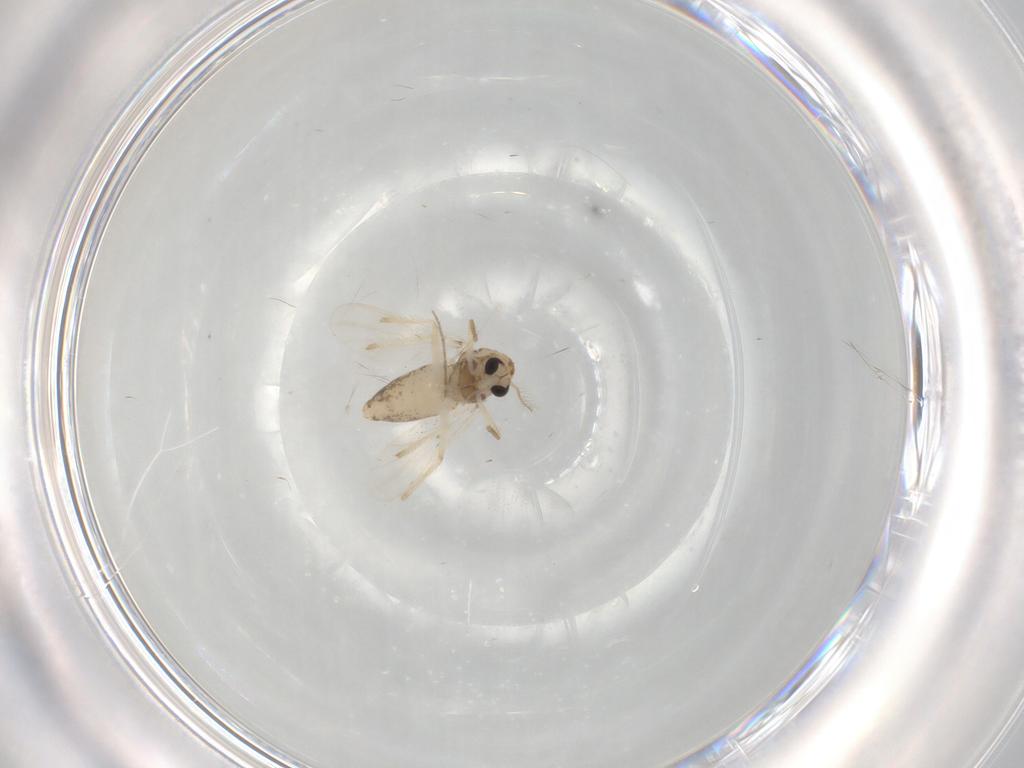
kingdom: Animalia
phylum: Arthropoda
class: Insecta
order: Diptera
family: Chironomidae
